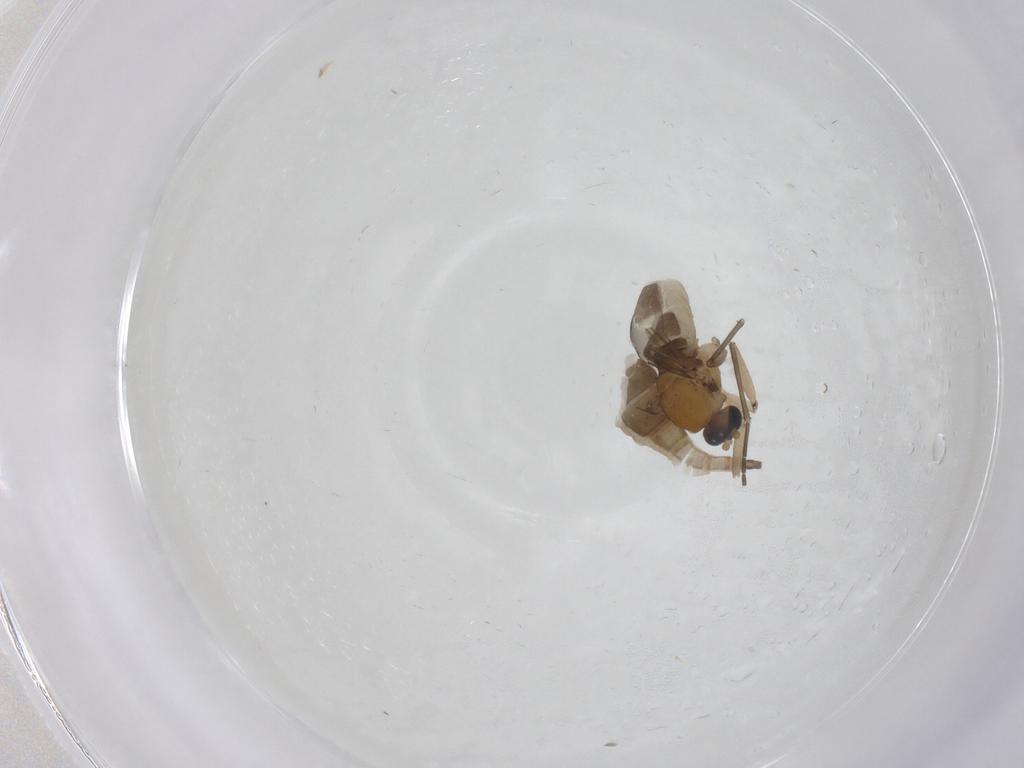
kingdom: Animalia
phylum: Arthropoda
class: Insecta
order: Diptera
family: Sciaridae
